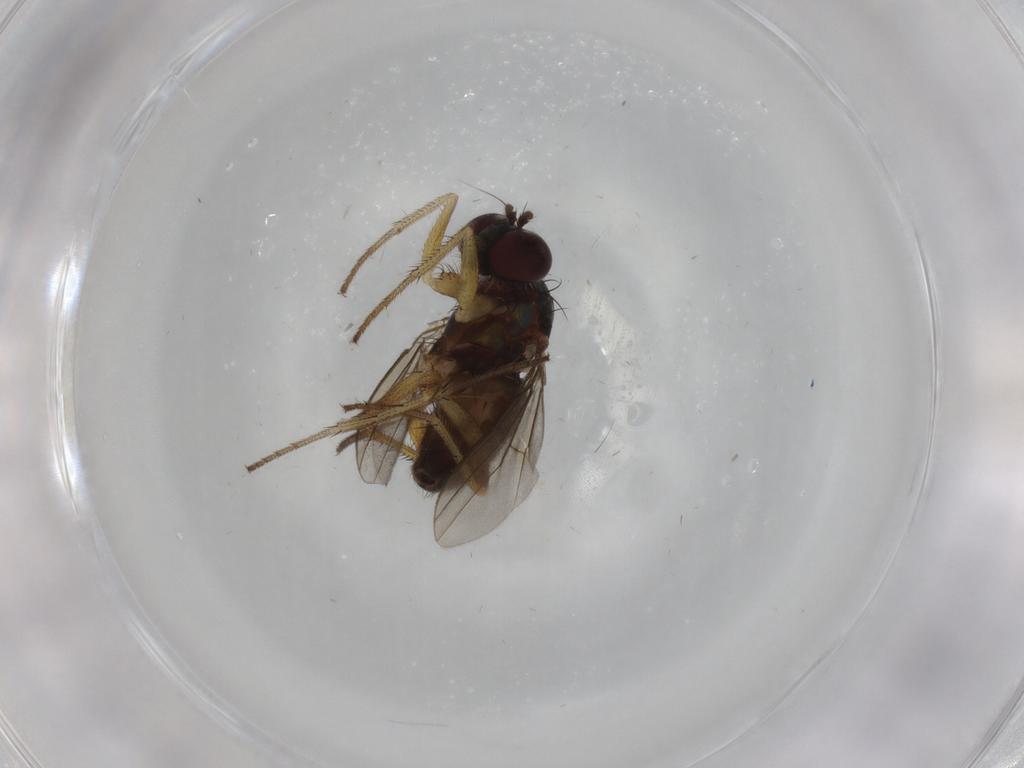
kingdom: Animalia
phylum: Arthropoda
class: Insecta
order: Diptera
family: Dolichopodidae
